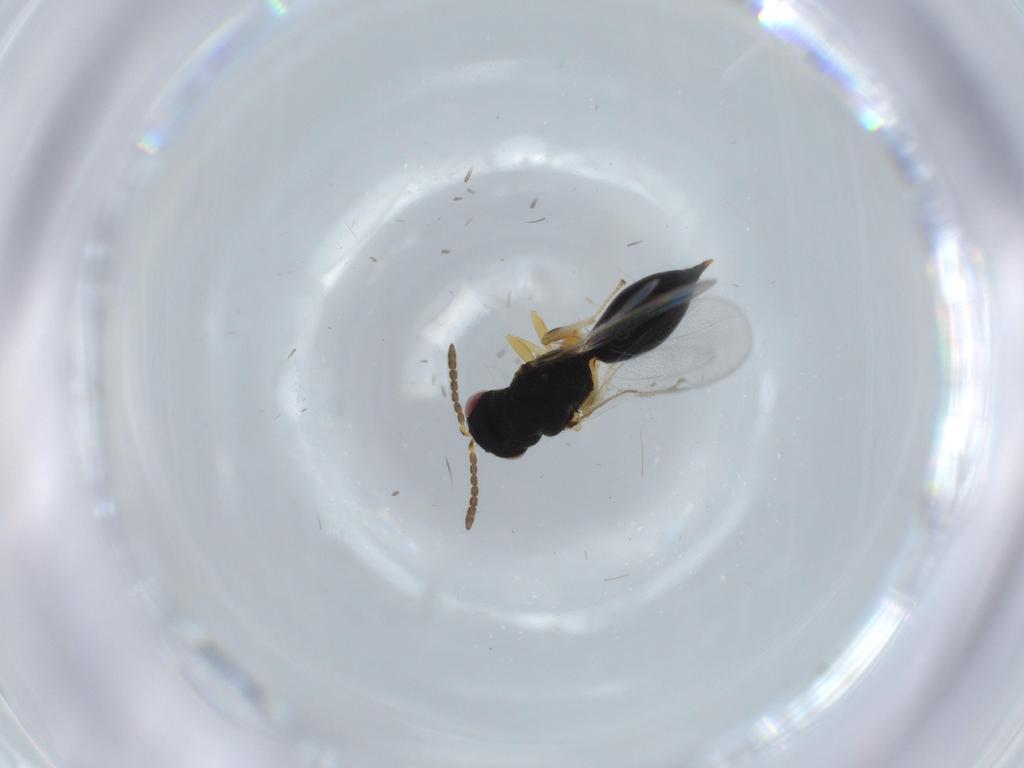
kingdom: Animalia
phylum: Arthropoda
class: Insecta
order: Hymenoptera
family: Eurytomidae
